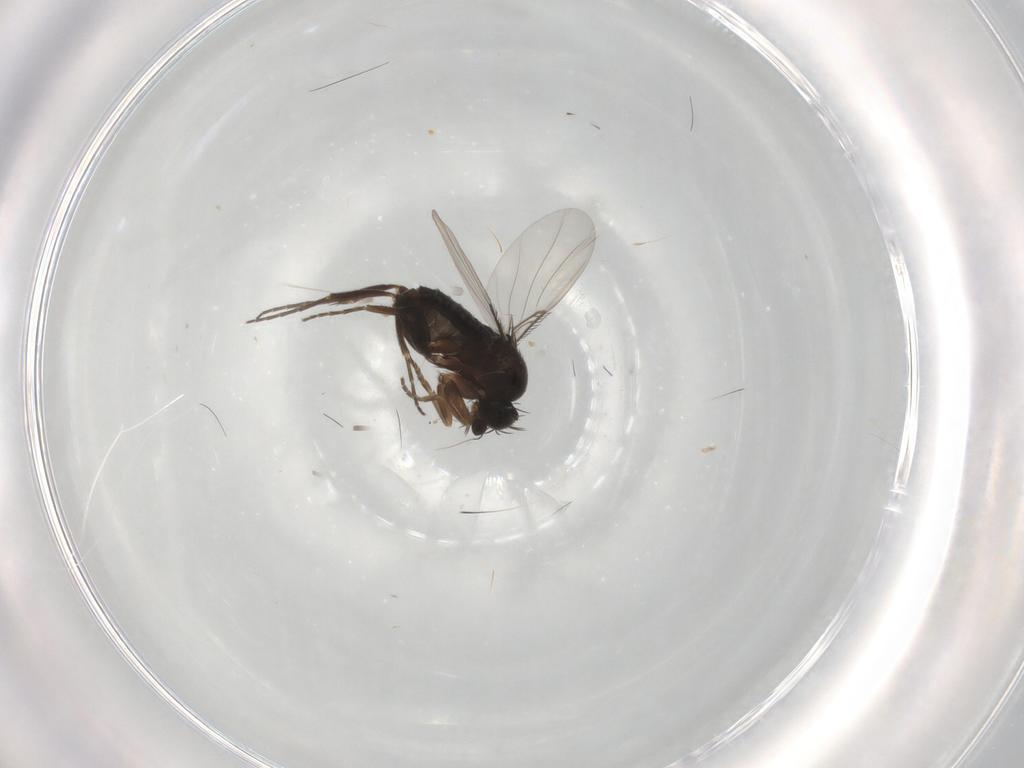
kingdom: Animalia
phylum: Arthropoda
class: Insecta
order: Diptera
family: Phoridae
